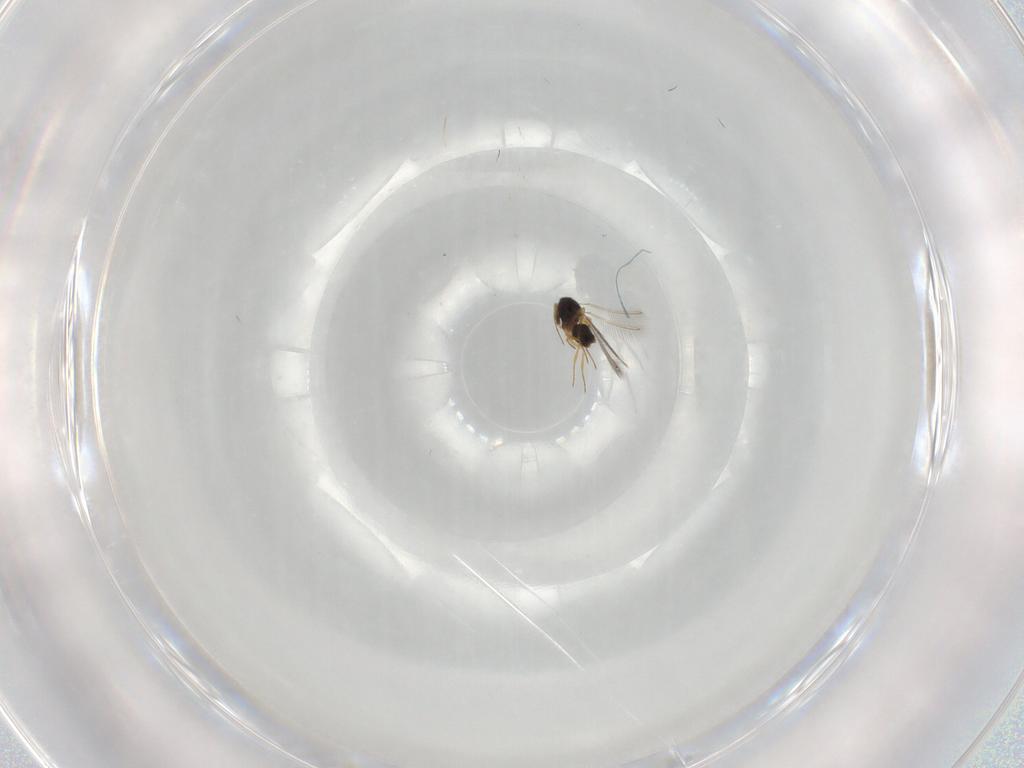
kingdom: Animalia
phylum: Arthropoda
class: Insecta
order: Hymenoptera
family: Mymaridae
